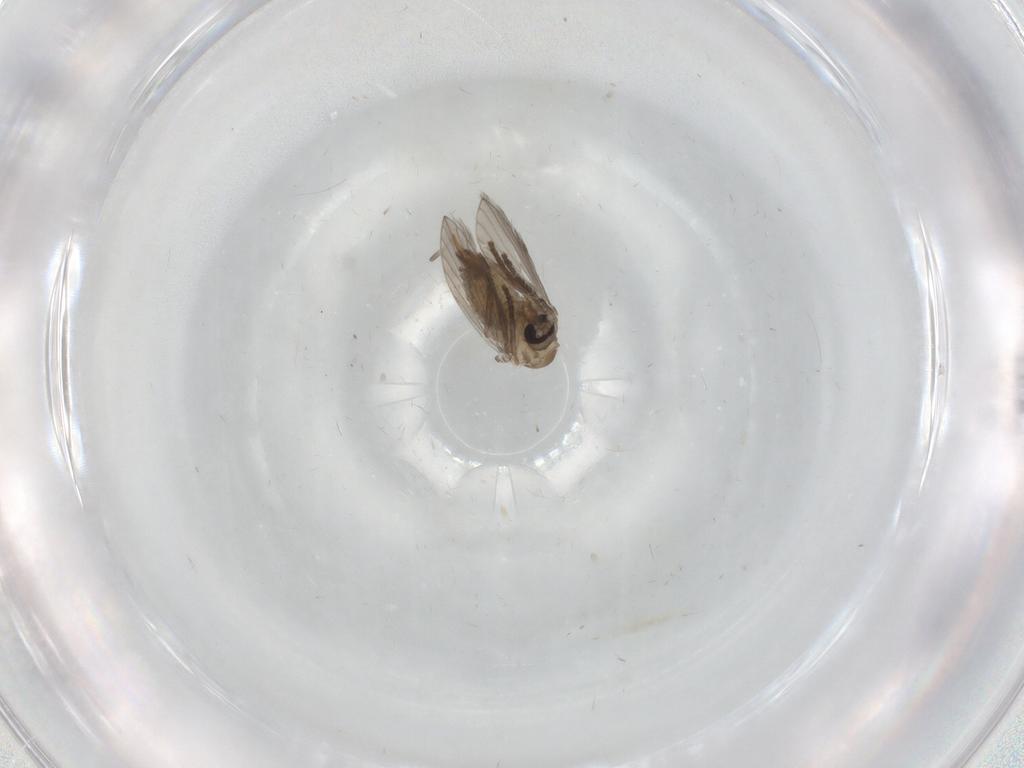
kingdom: Animalia
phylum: Arthropoda
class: Insecta
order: Diptera
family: Psychodidae
